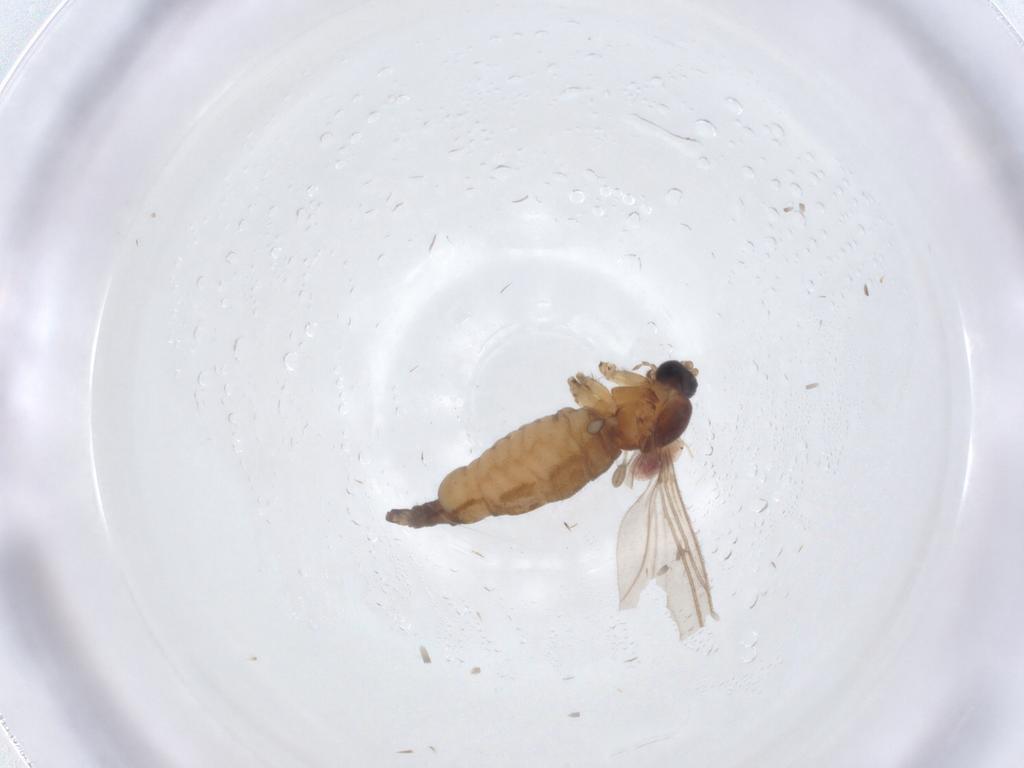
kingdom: Animalia
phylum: Arthropoda
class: Insecta
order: Diptera
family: Sciaridae
